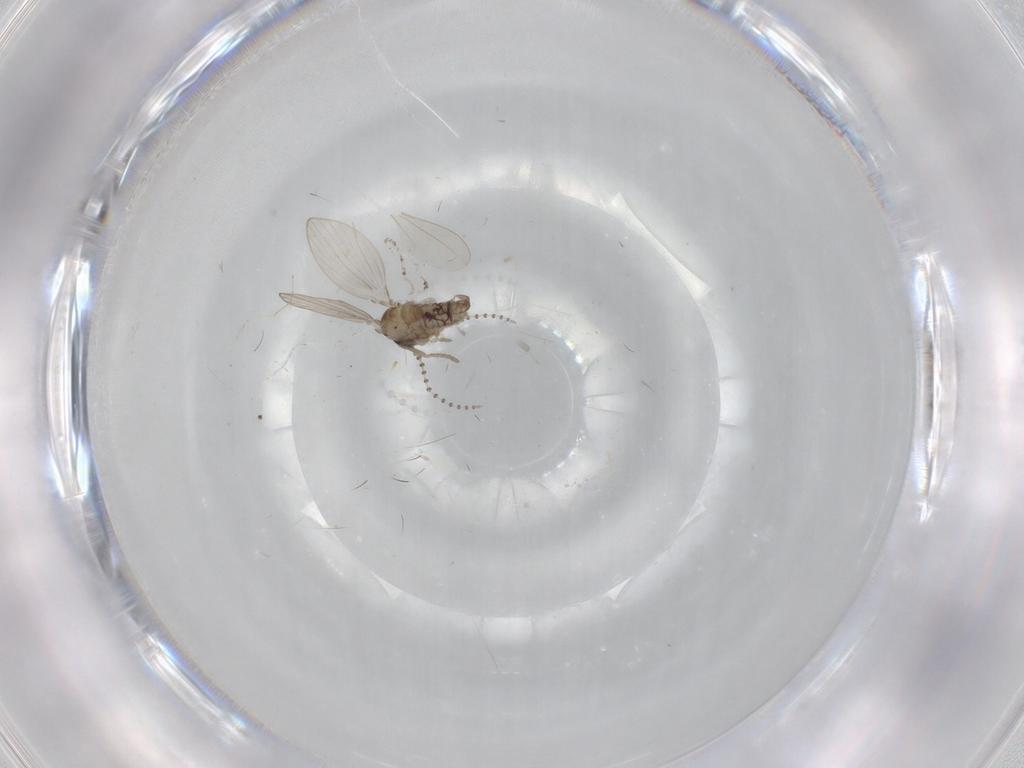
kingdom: Animalia
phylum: Arthropoda
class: Insecta
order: Diptera
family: Psychodidae
